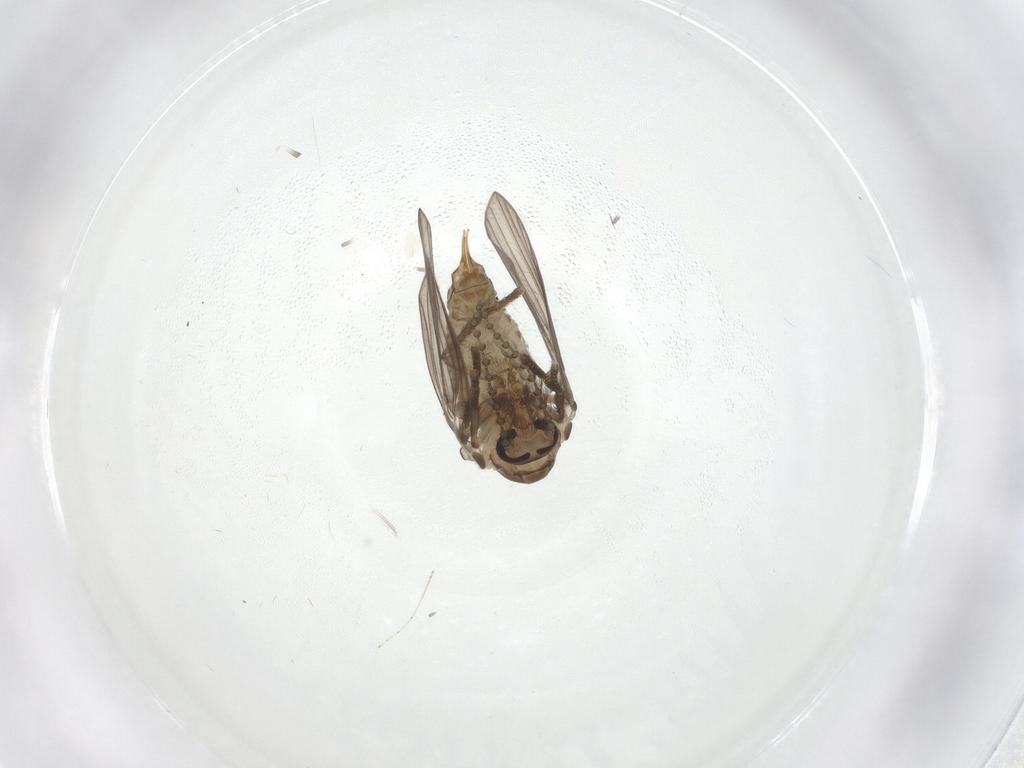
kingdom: Animalia
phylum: Arthropoda
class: Insecta
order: Diptera
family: Psychodidae
